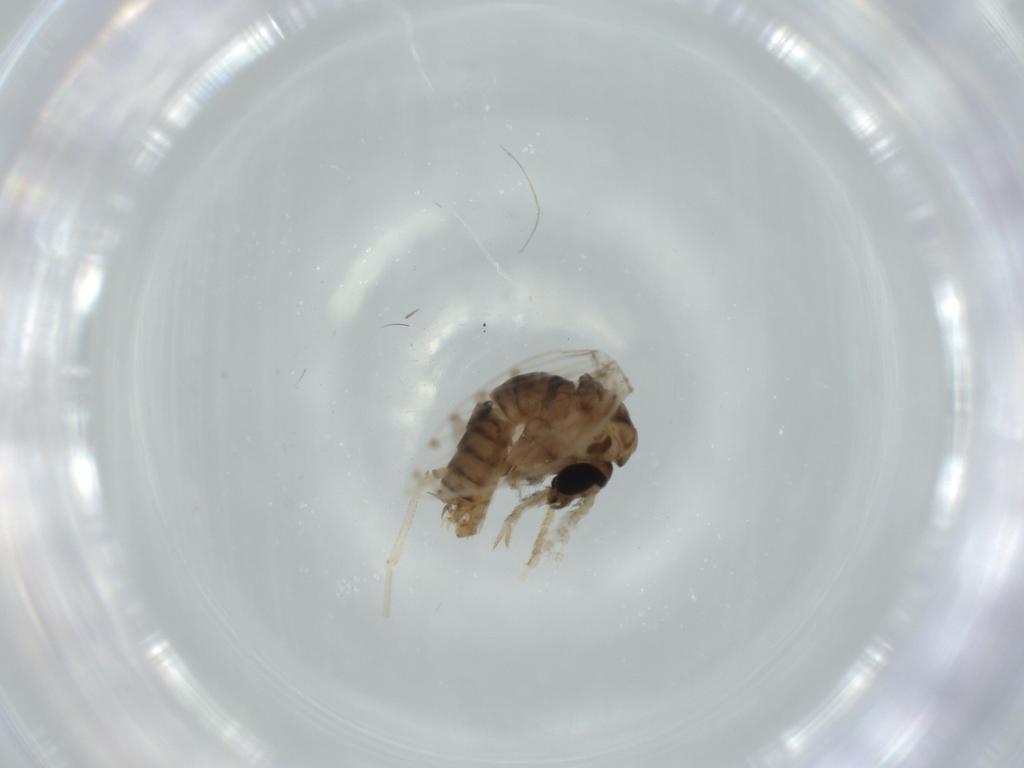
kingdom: Animalia
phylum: Arthropoda
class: Insecta
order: Diptera
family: Psychodidae
